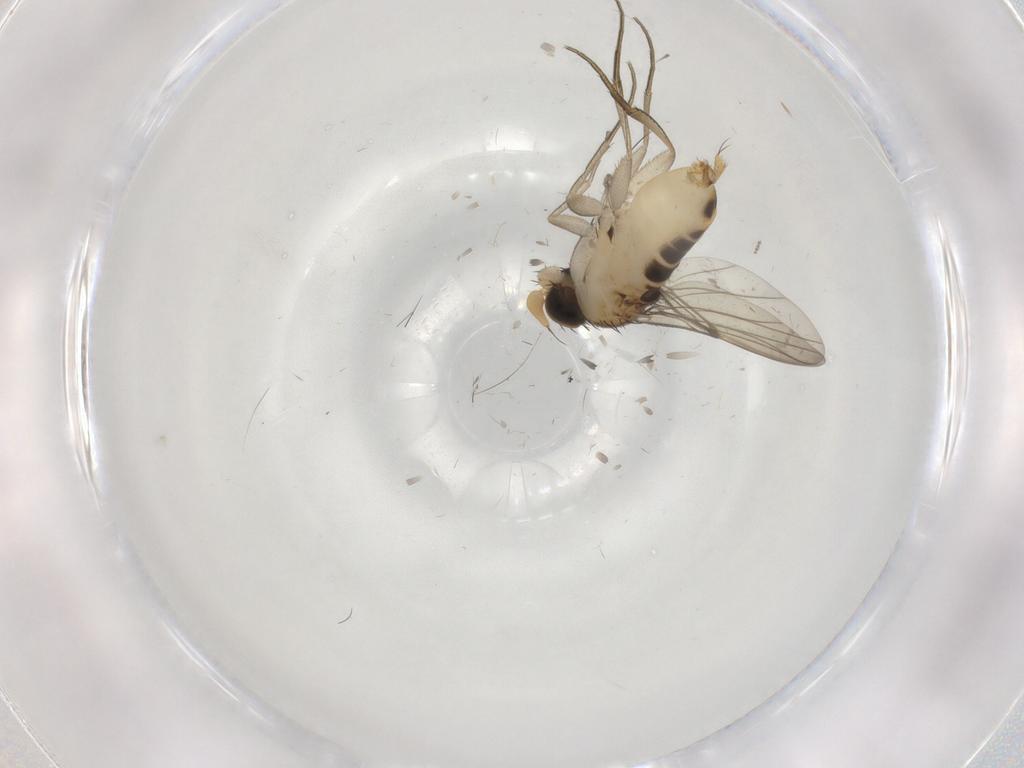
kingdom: Animalia
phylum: Arthropoda
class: Insecta
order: Diptera
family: Phoridae
